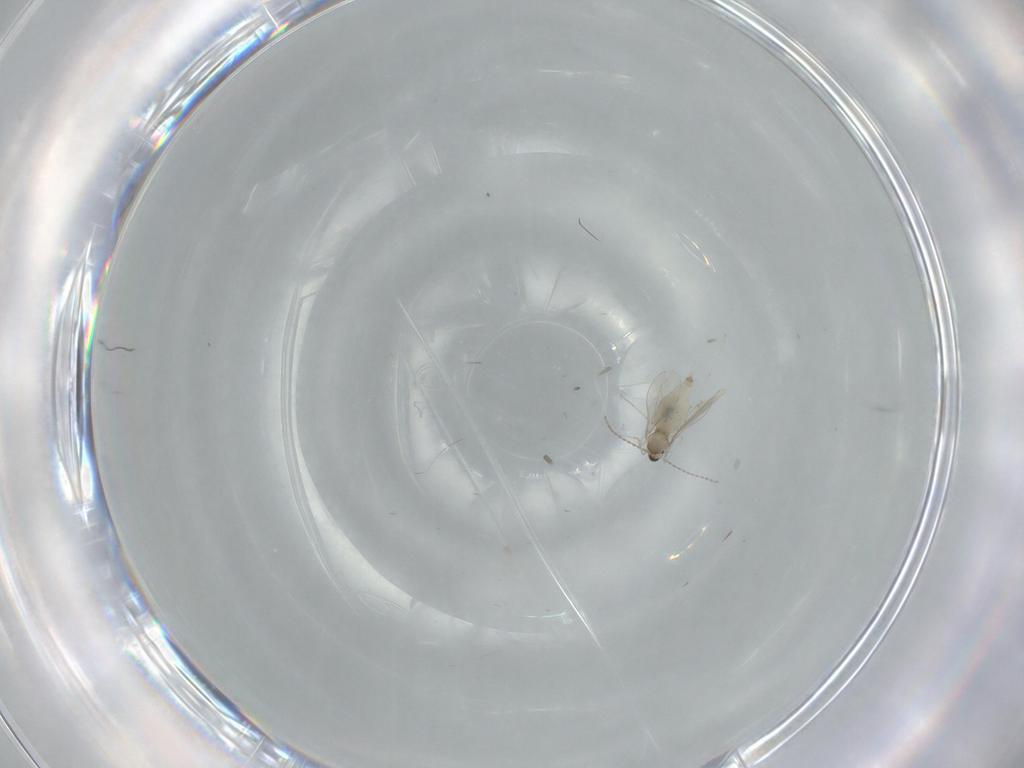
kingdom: Animalia
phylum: Arthropoda
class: Insecta
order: Diptera
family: Cecidomyiidae
